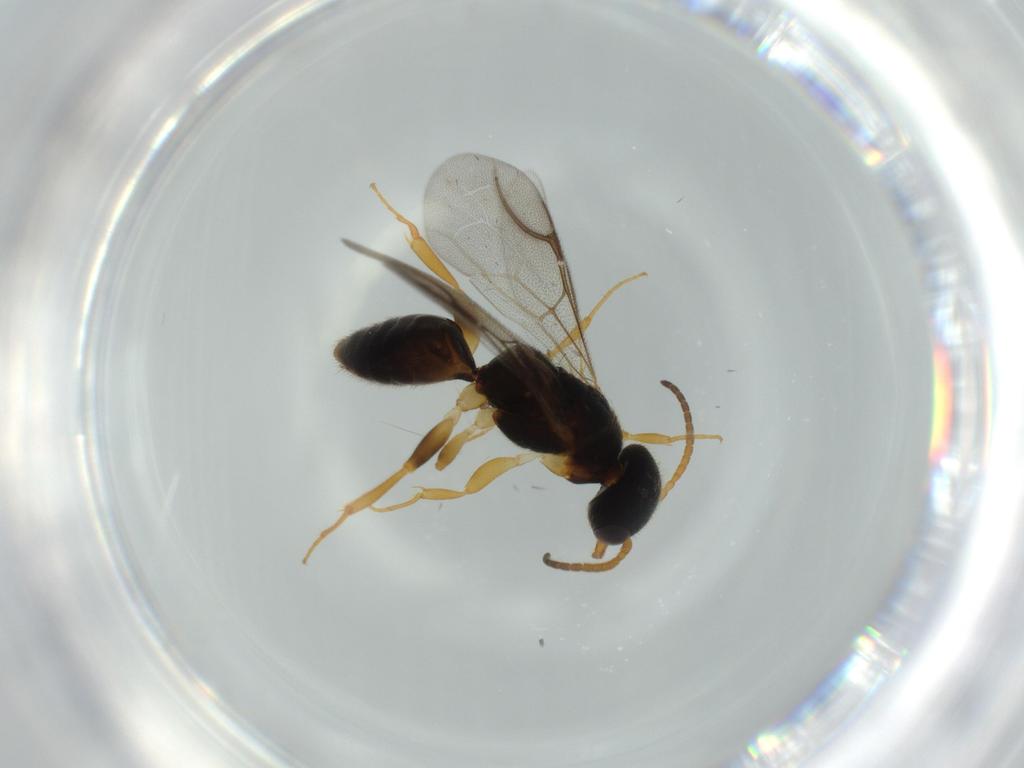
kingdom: Animalia
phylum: Arthropoda
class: Insecta
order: Hymenoptera
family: Bethylidae
